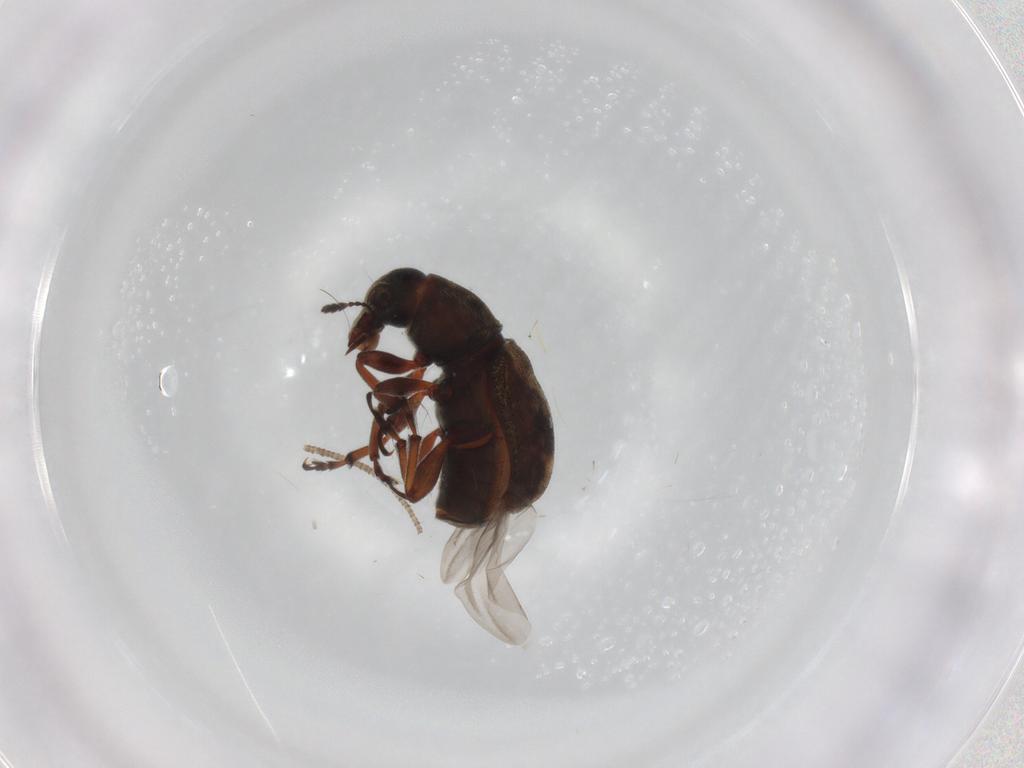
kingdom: Animalia
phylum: Arthropoda
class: Insecta
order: Coleoptera
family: Anthribidae
